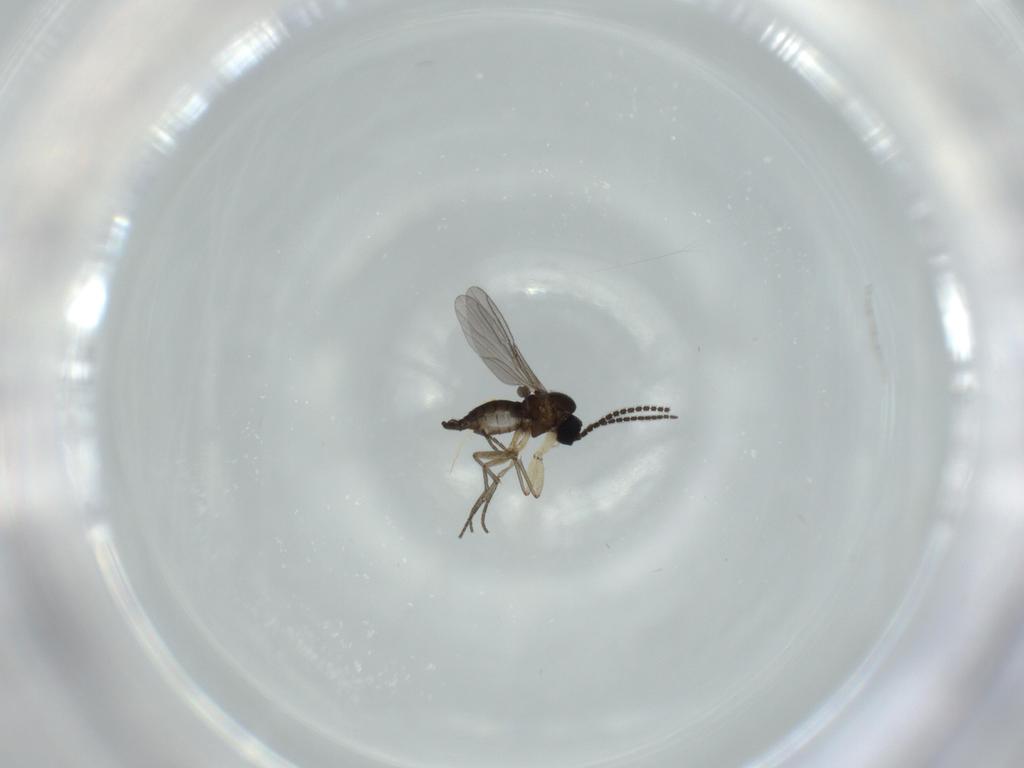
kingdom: Animalia
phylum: Arthropoda
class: Insecta
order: Diptera
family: Sciaridae
